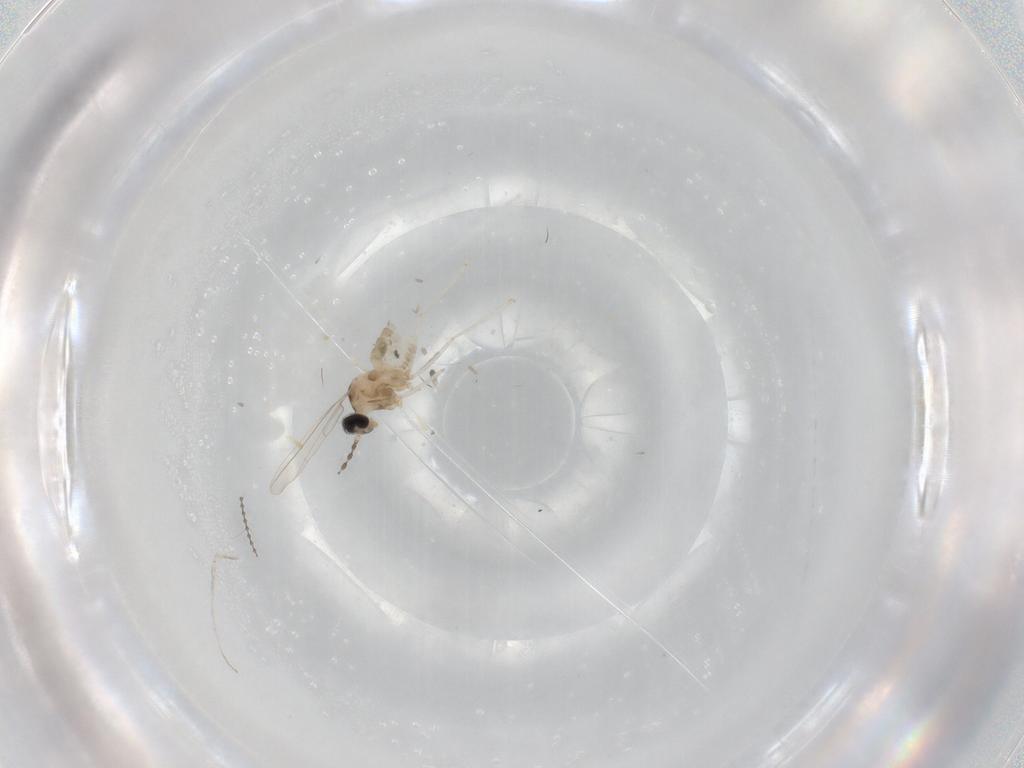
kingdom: Animalia
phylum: Arthropoda
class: Insecta
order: Diptera
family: Cecidomyiidae
